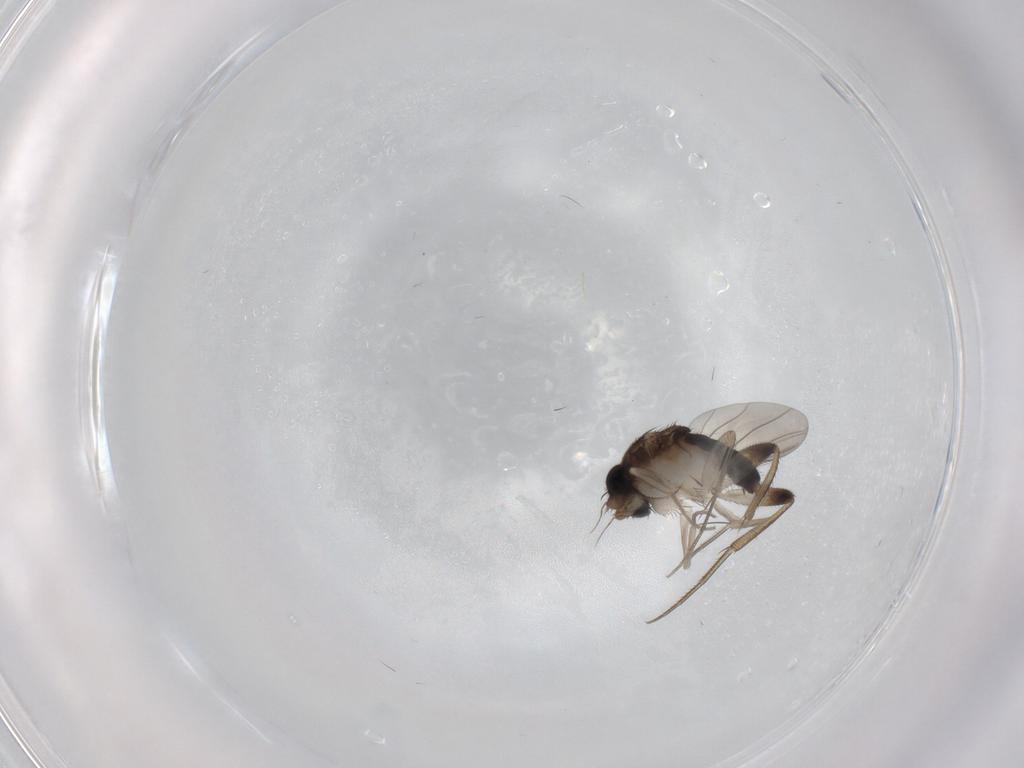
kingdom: Animalia
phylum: Arthropoda
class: Insecta
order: Diptera
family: Phoridae
